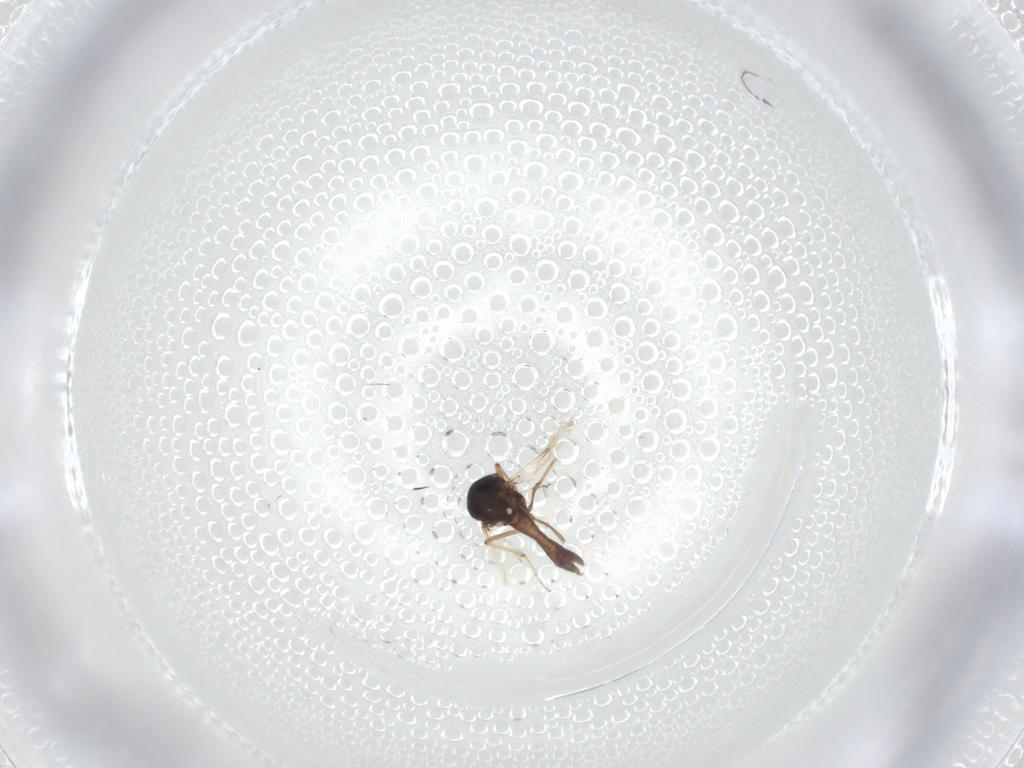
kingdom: Animalia
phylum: Arthropoda
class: Insecta
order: Diptera
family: Ceratopogonidae
